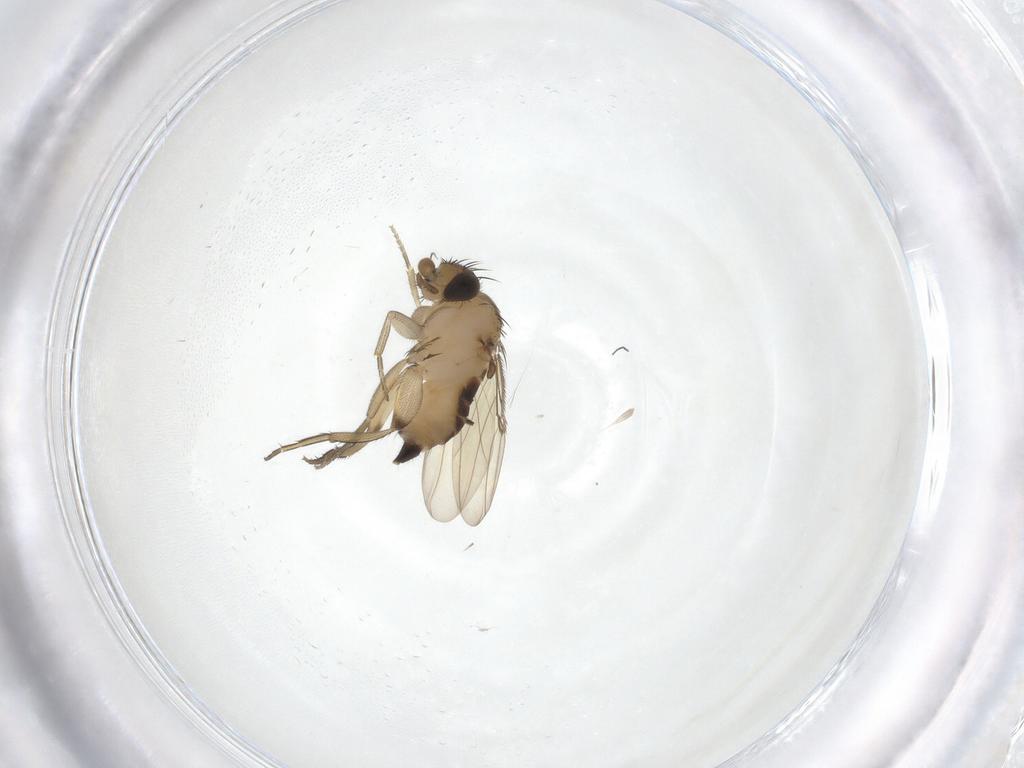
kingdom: Animalia
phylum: Arthropoda
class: Insecta
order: Diptera
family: Phoridae
